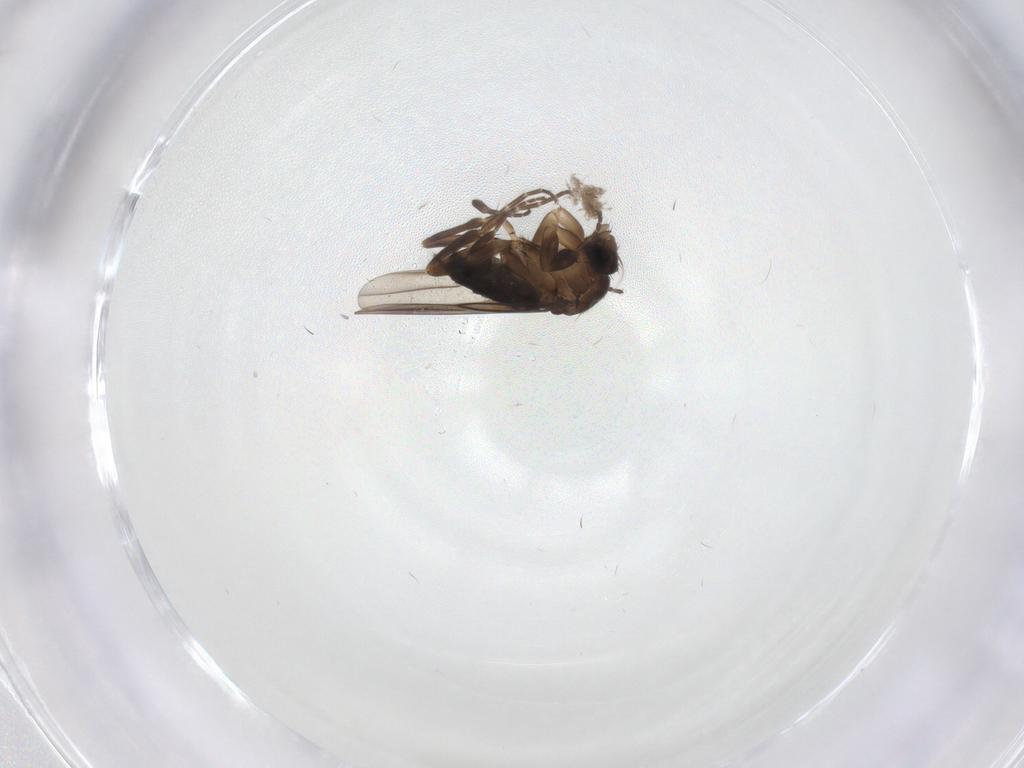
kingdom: Animalia
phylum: Arthropoda
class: Insecta
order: Diptera
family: Phoridae
